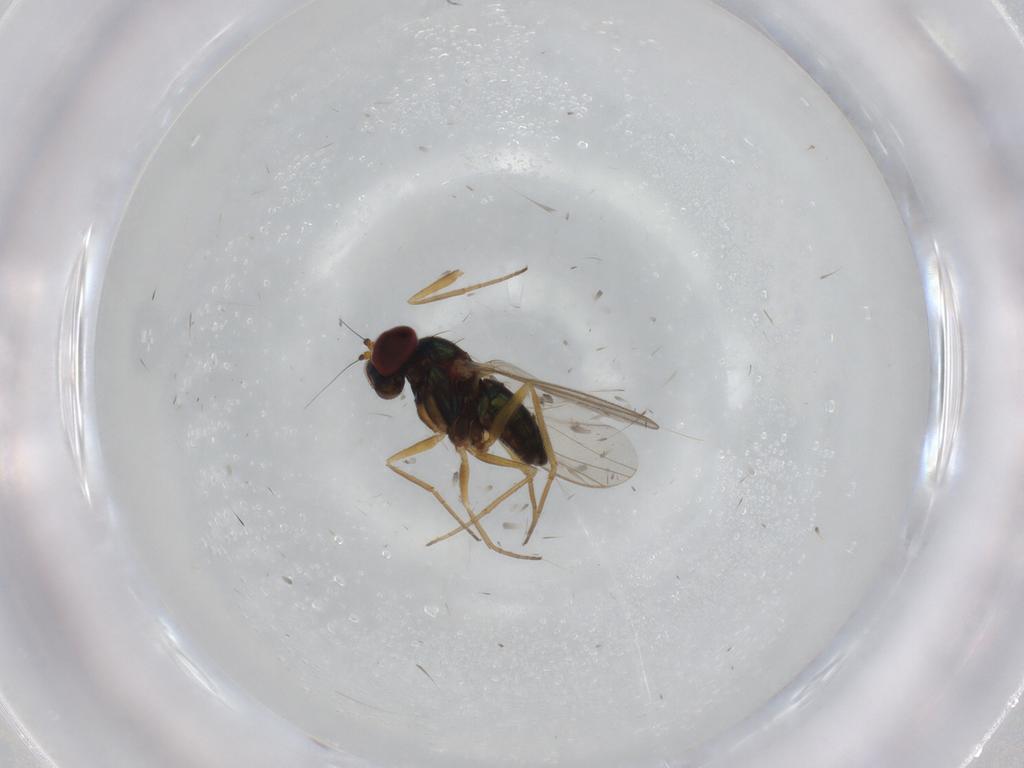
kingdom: Animalia
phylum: Arthropoda
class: Insecta
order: Diptera
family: Dolichopodidae
